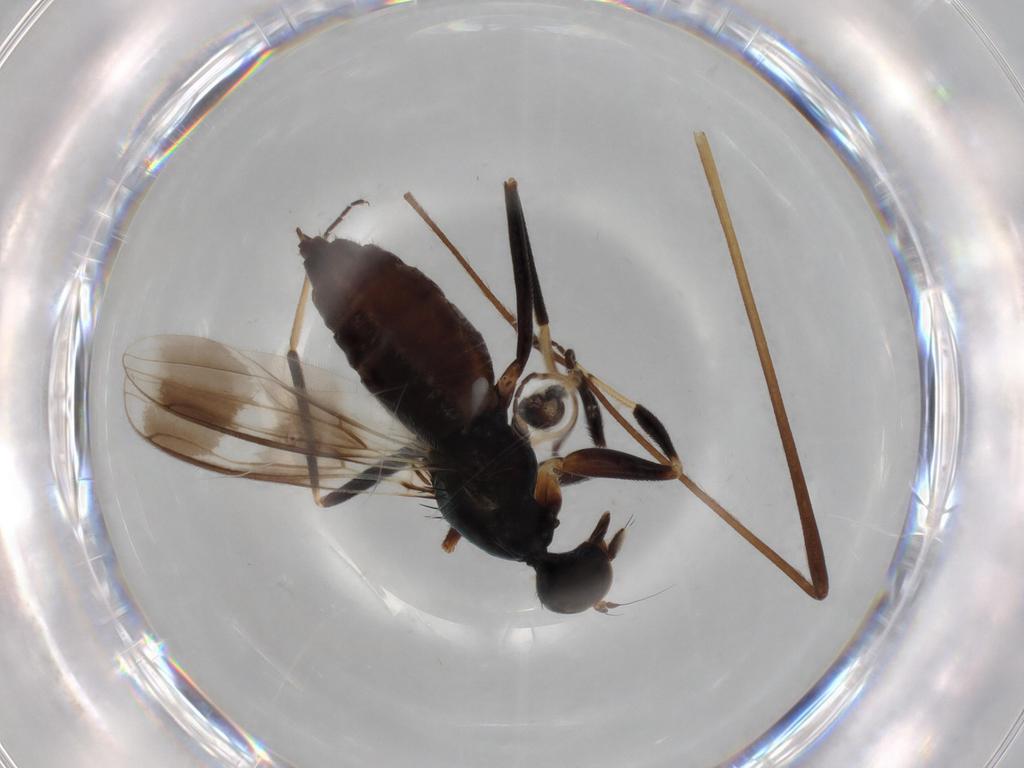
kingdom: Animalia
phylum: Arthropoda
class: Insecta
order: Diptera
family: Hybotidae
